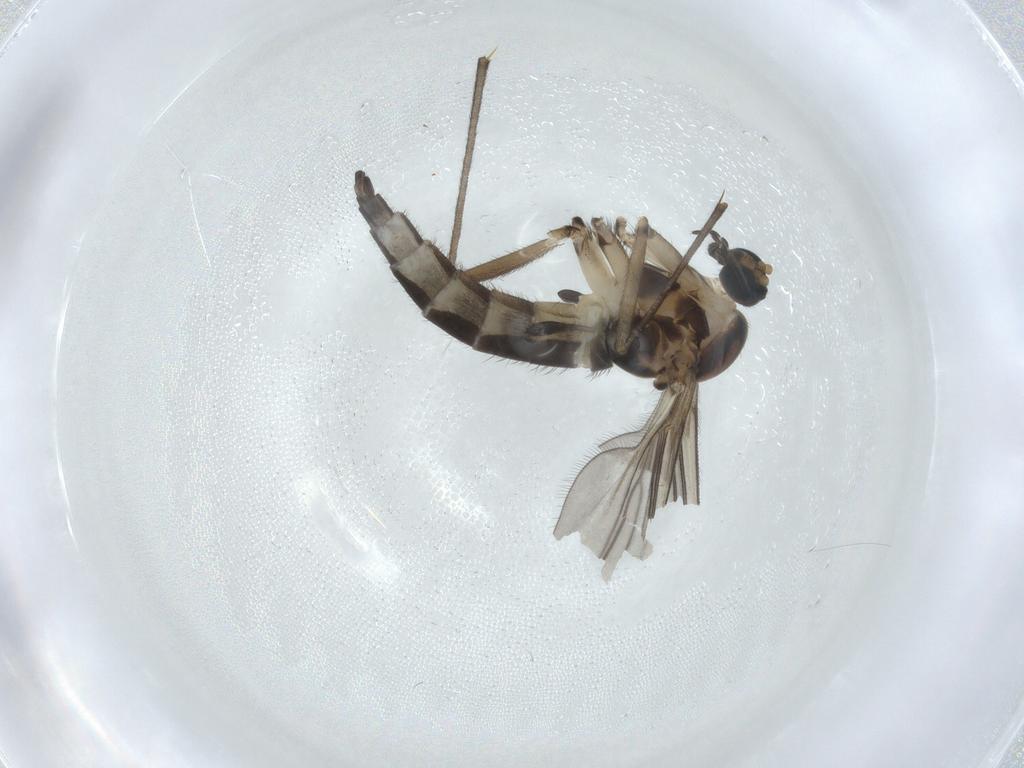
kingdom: Animalia
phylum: Arthropoda
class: Insecta
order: Diptera
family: Sciaridae
